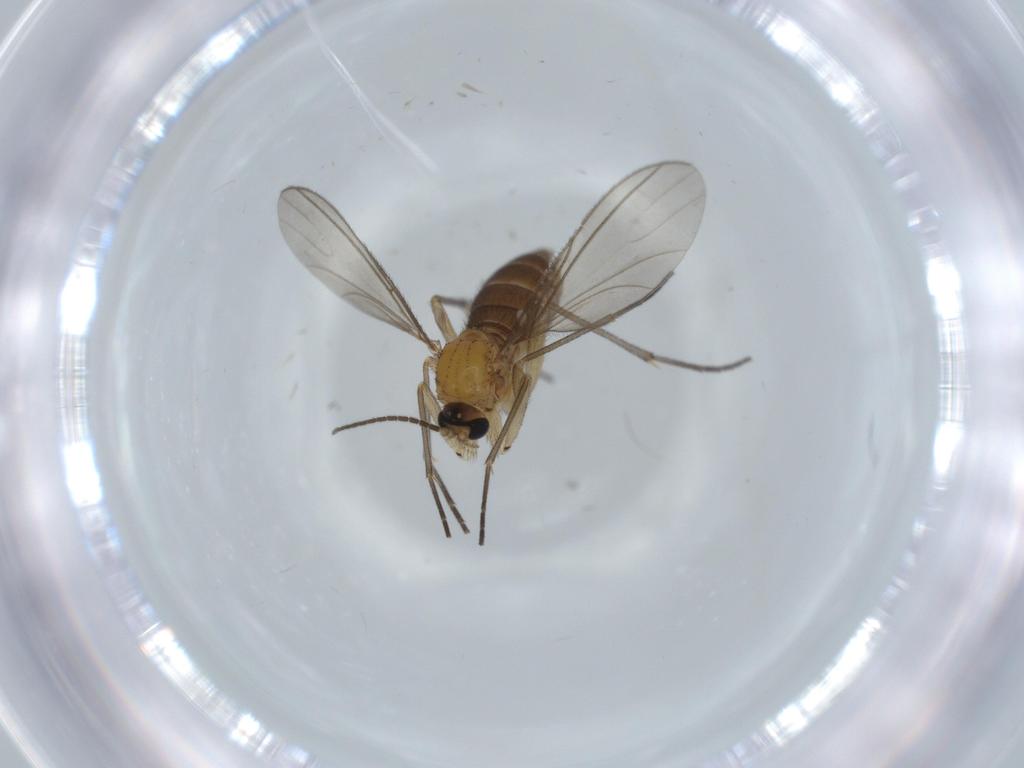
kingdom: Animalia
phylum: Arthropoda
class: Insecta
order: Diptera
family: Sciaridae
